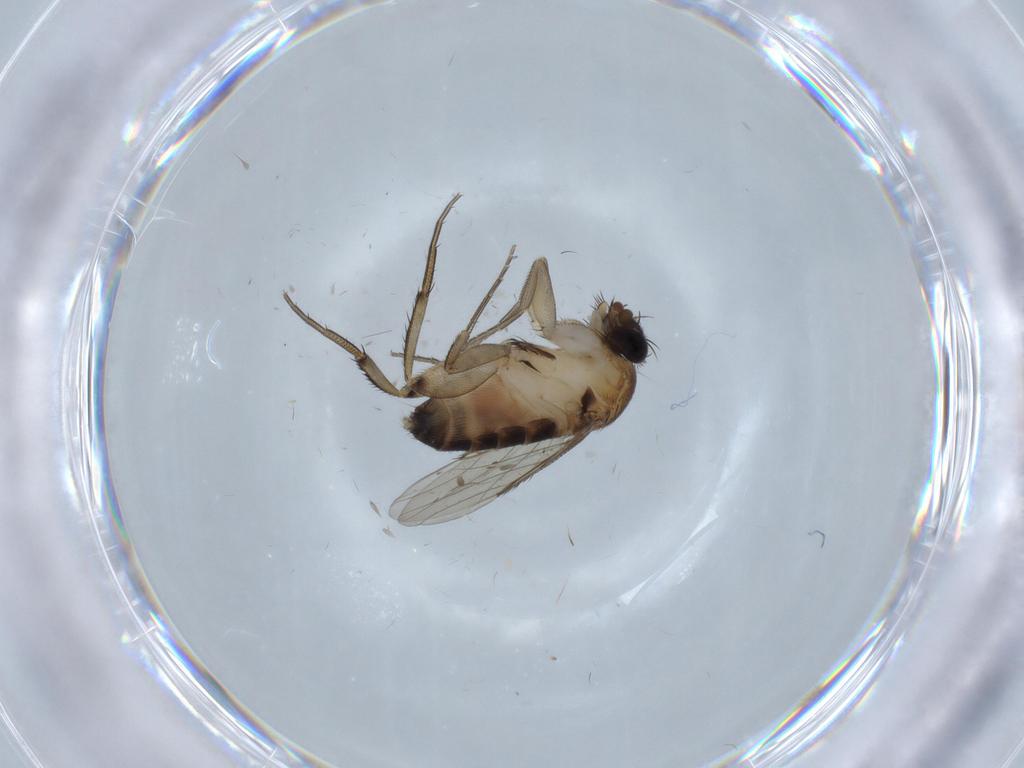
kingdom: Animalia
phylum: Arthropoda
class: Insecta
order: Diptera
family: Phoridae
